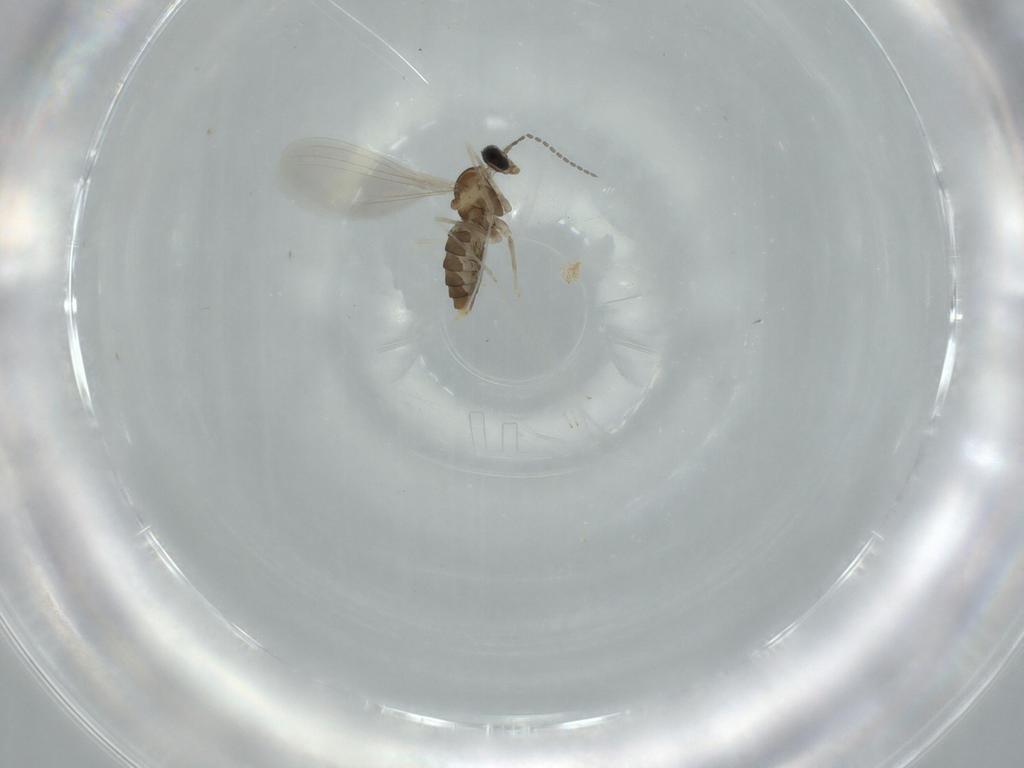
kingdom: Animalia
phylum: Arthropoda
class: Insecta
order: Diptera
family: Cecidomyiidae
